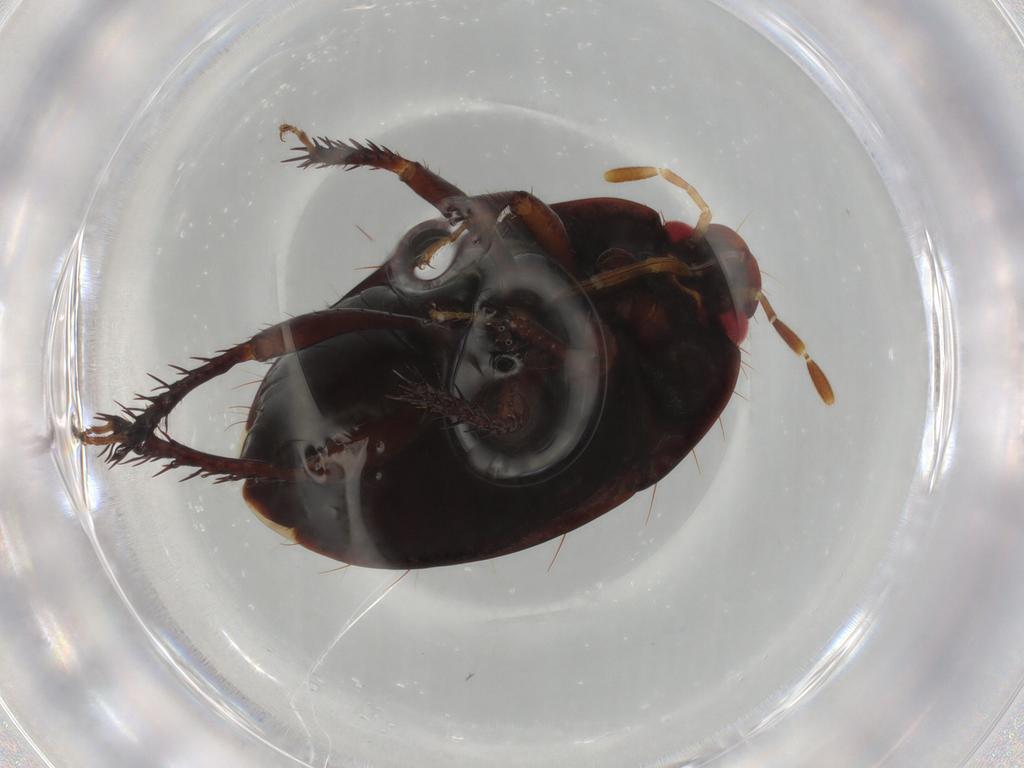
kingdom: Animalia
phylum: Arthropoda
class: Insecta
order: Hemiptera
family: Cydnidae
